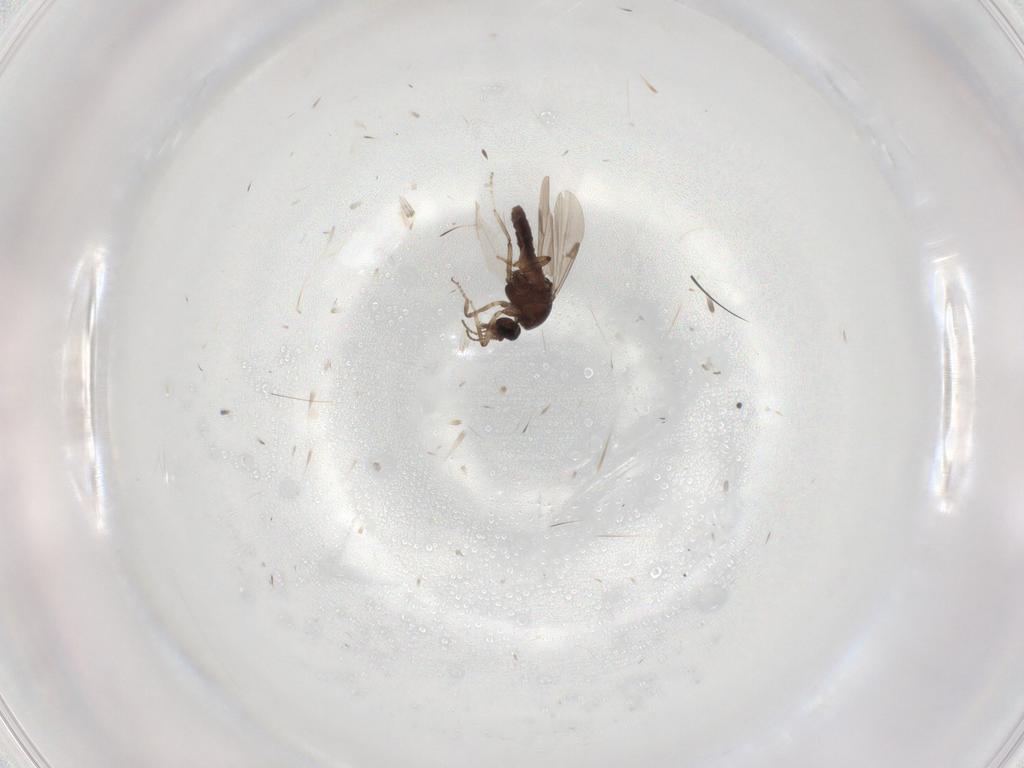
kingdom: Animalia
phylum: Arthropoda
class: Insecta
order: Diptera
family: Ceratopogonidae
